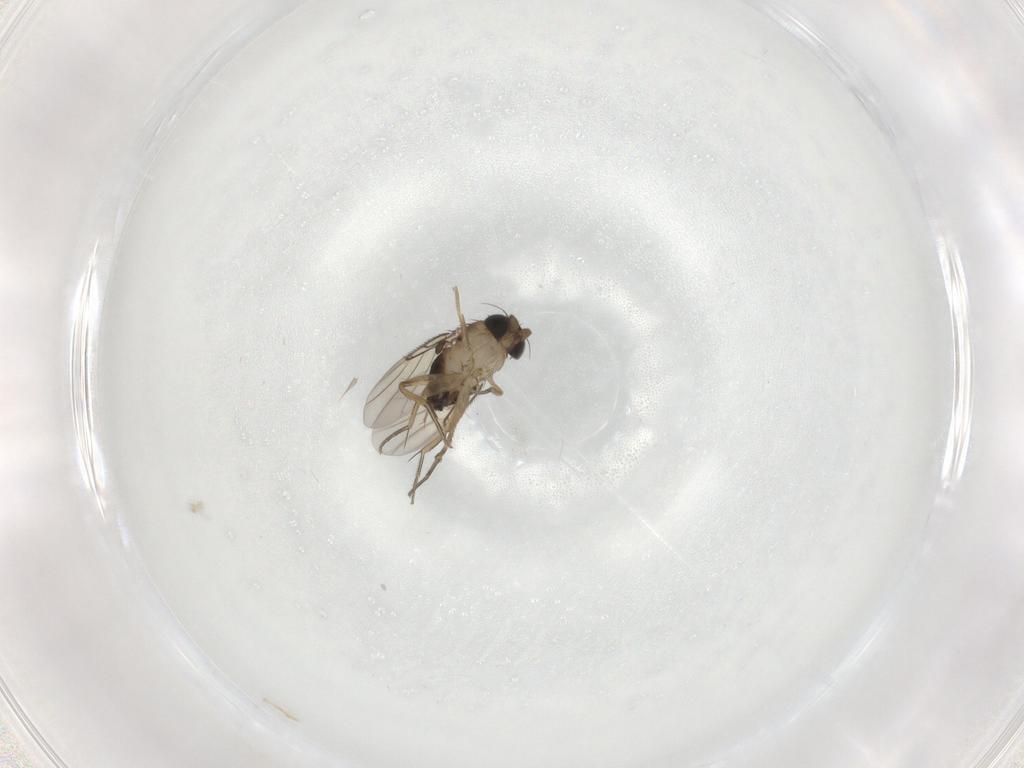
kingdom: Animalia
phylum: Arthropoda
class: Insecta
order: Diptera
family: Phoridae
